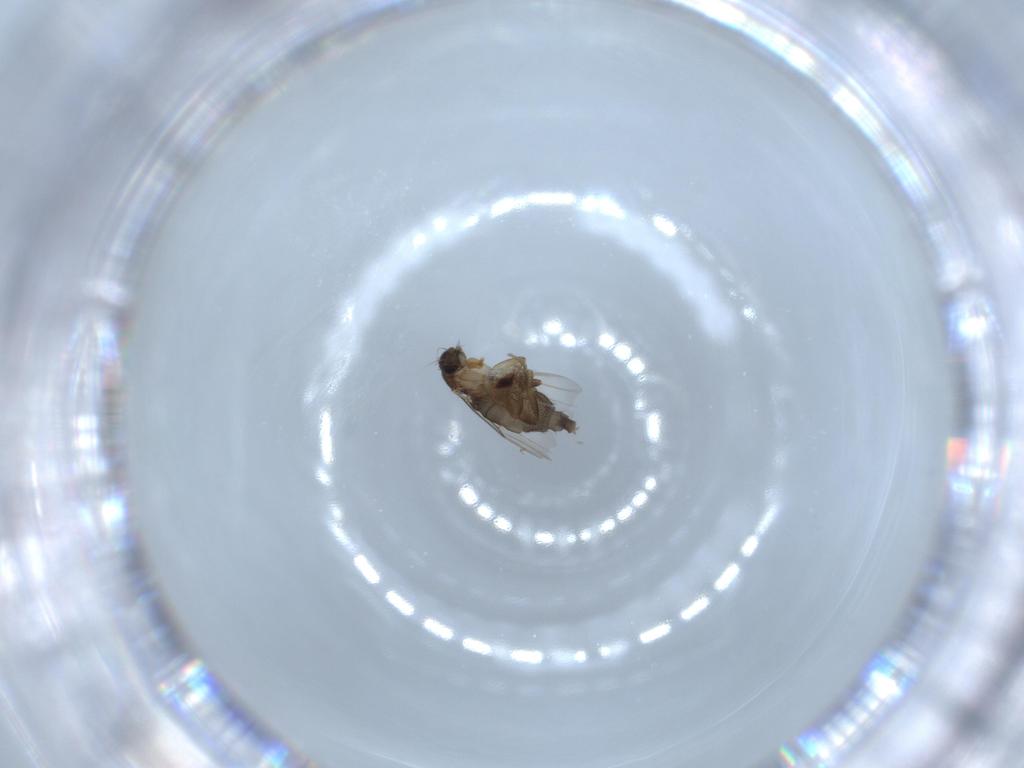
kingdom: Animalia
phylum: Arthropoda
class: Insecta
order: Diptera
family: Phoridae
